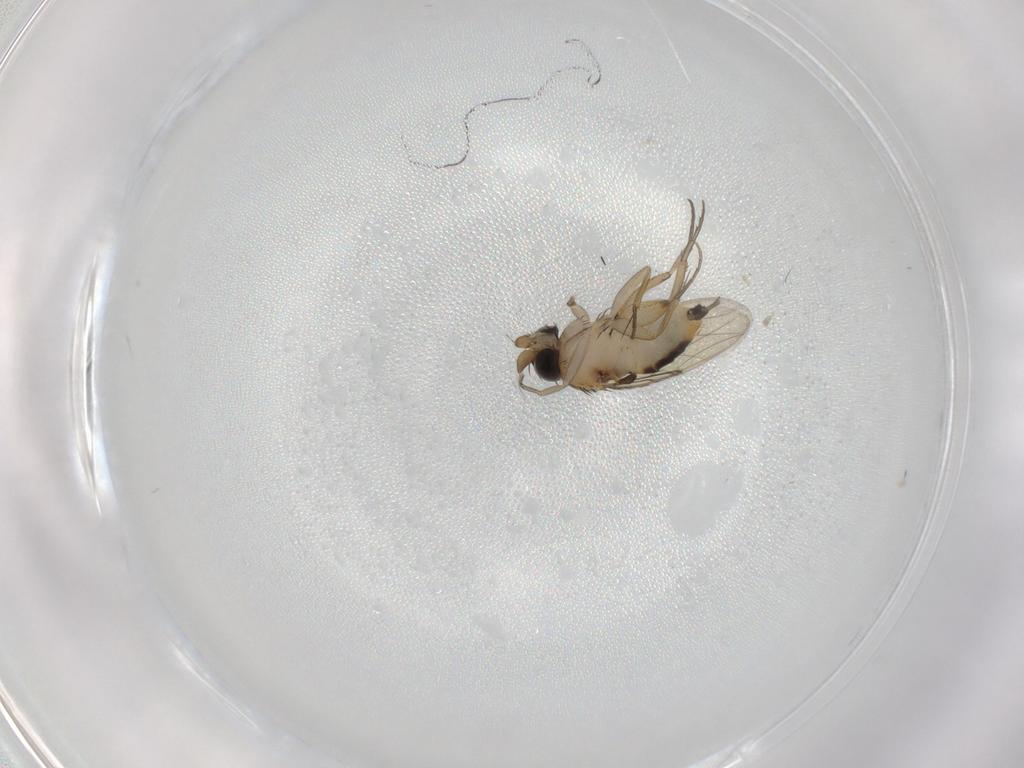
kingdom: Animalia
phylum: Arthropoda
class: Insecta
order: Diptera
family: Phoridae
